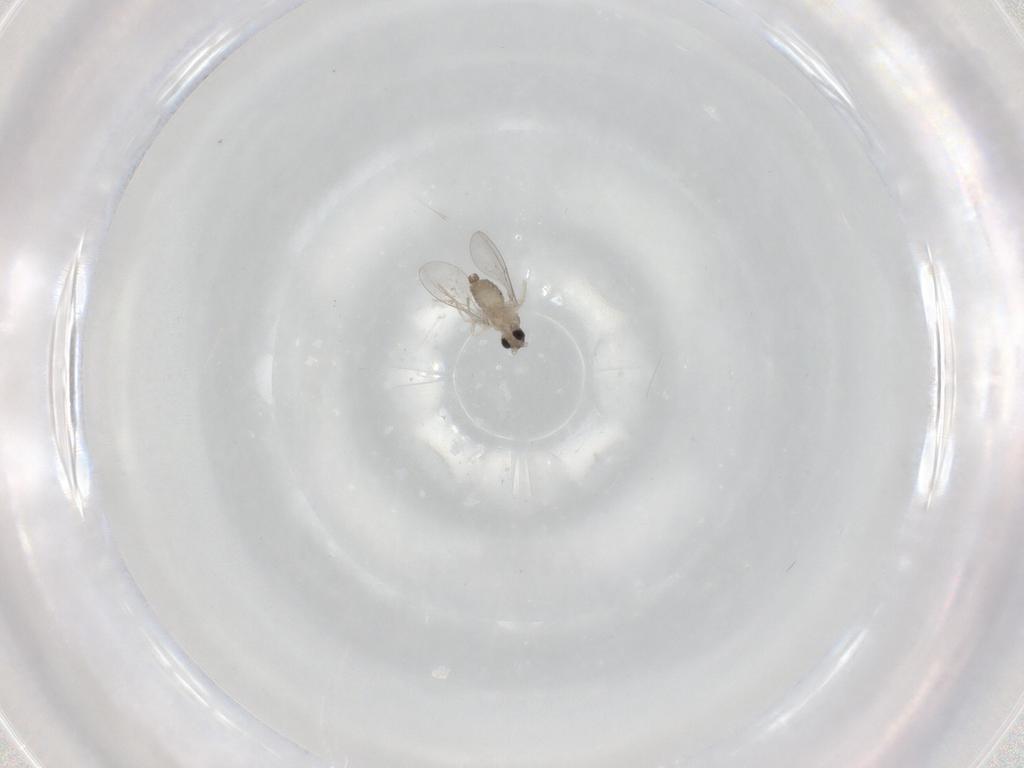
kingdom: Animalia
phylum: Arthropoda
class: Insecta
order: Diptera
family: Cecidomyiidae
